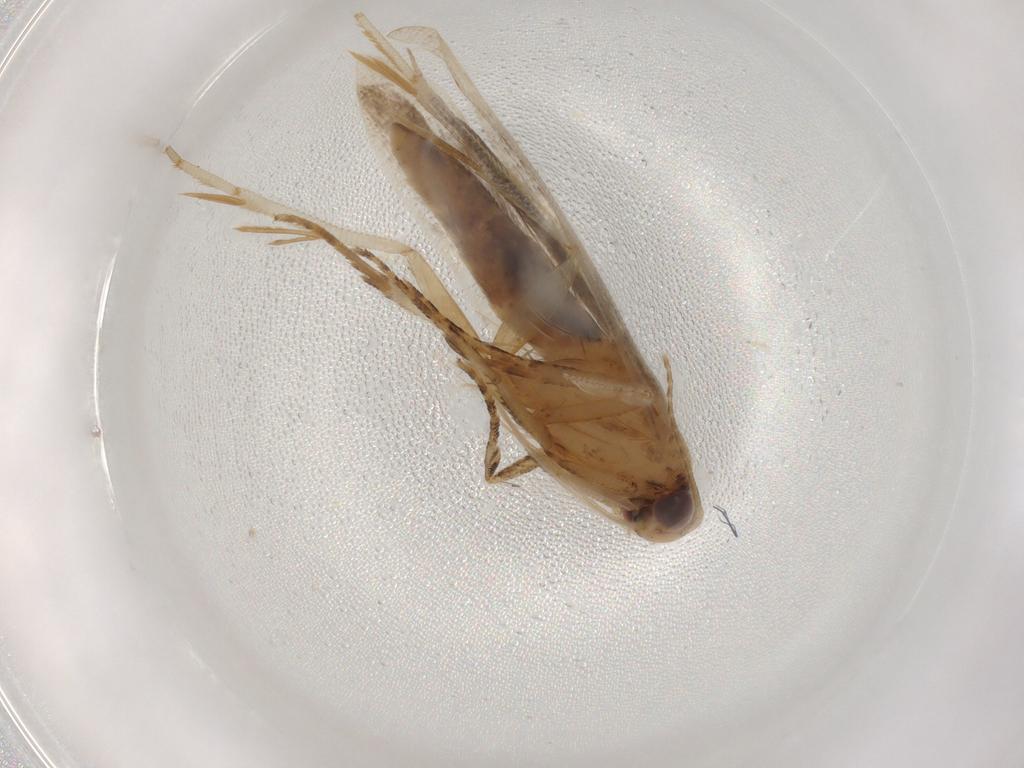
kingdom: Animalia
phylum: Arthropoda
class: Insecta
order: Lepidoptera
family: Gelechiidae
